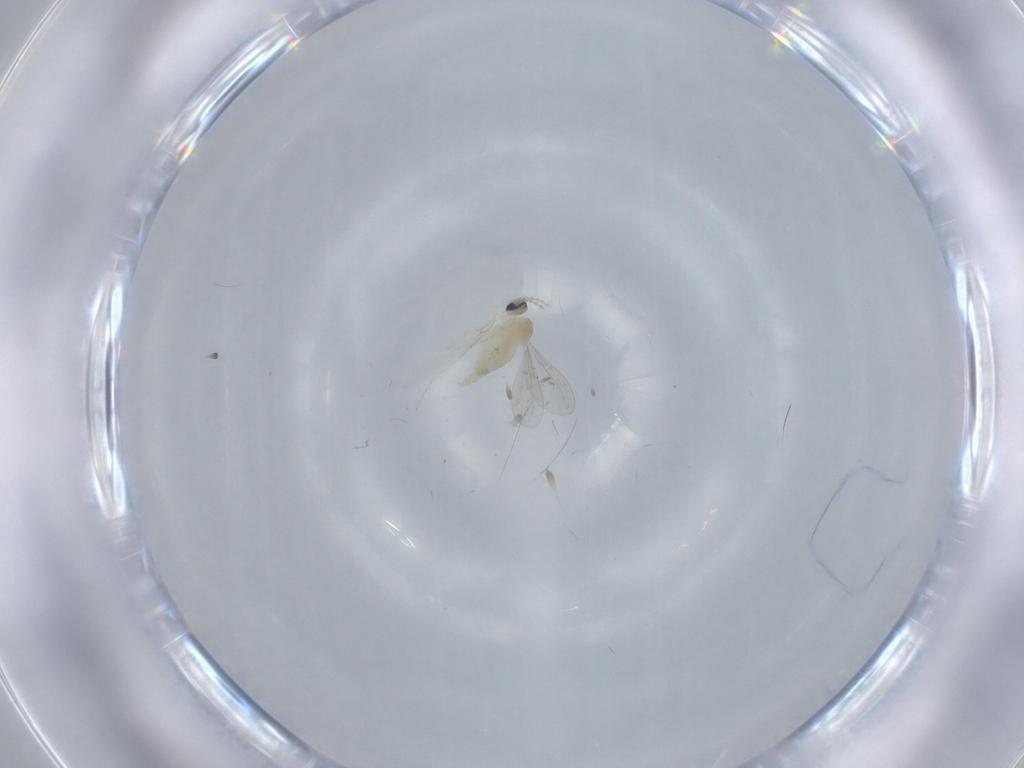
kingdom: Animalia
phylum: Arthropoda
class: Insecta
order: Diptera
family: Cecidomyiidae
